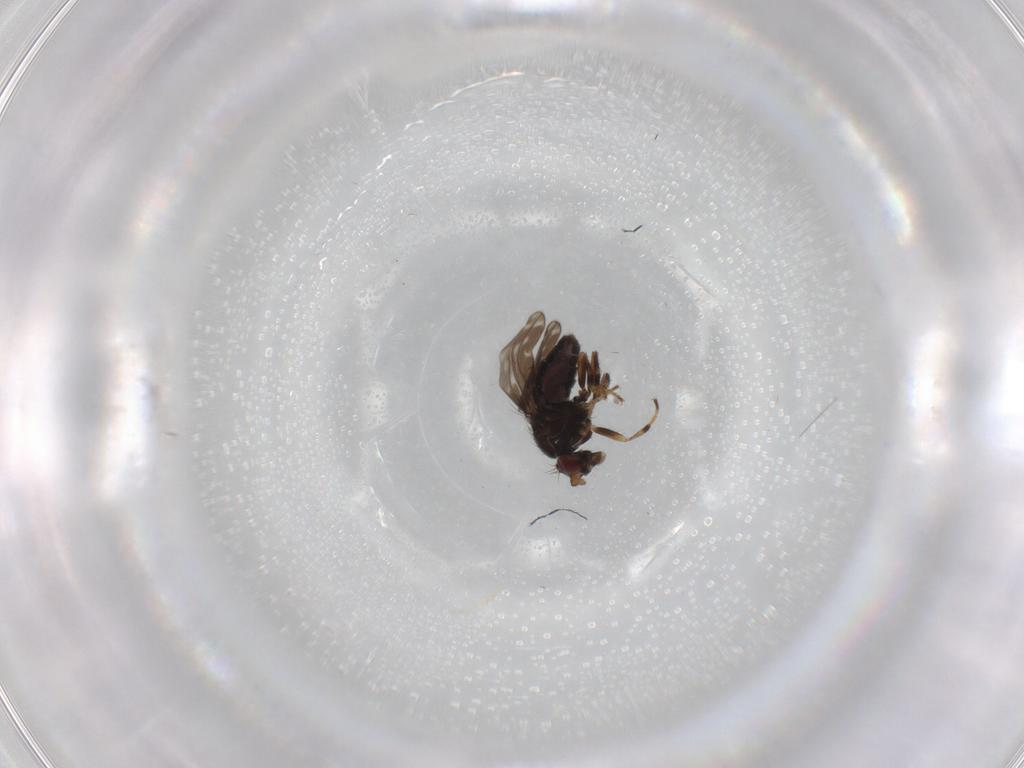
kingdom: Animalia
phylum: Arthropoda
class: Insecta
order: Diptera
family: Sphaeroceridae
